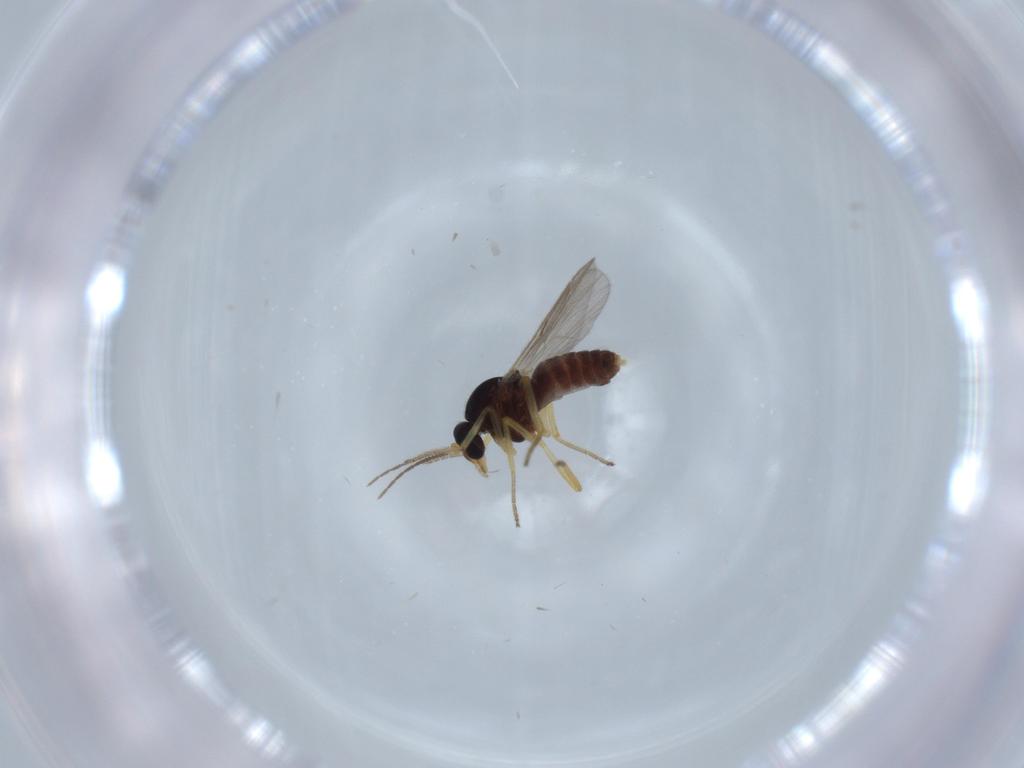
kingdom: Animalia
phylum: Arthropoda
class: Insecta
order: Diptera
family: Ceratopogonidae
